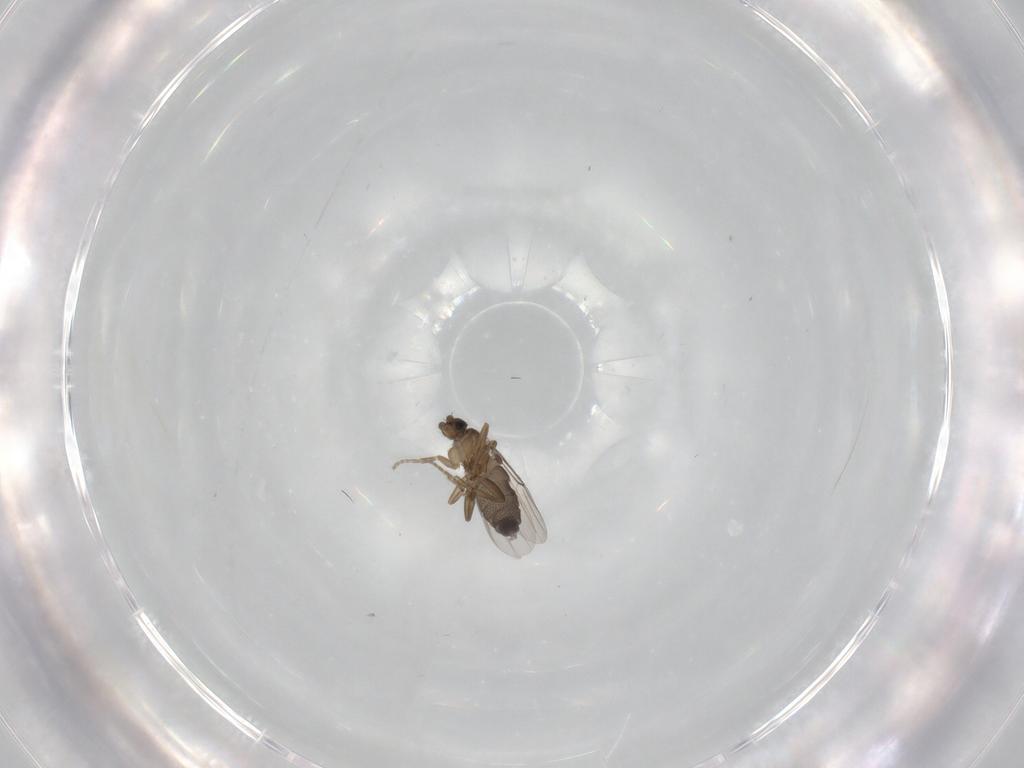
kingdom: Animalia
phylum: Arthropoda
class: Insecta
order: Diptera
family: Phoridae
